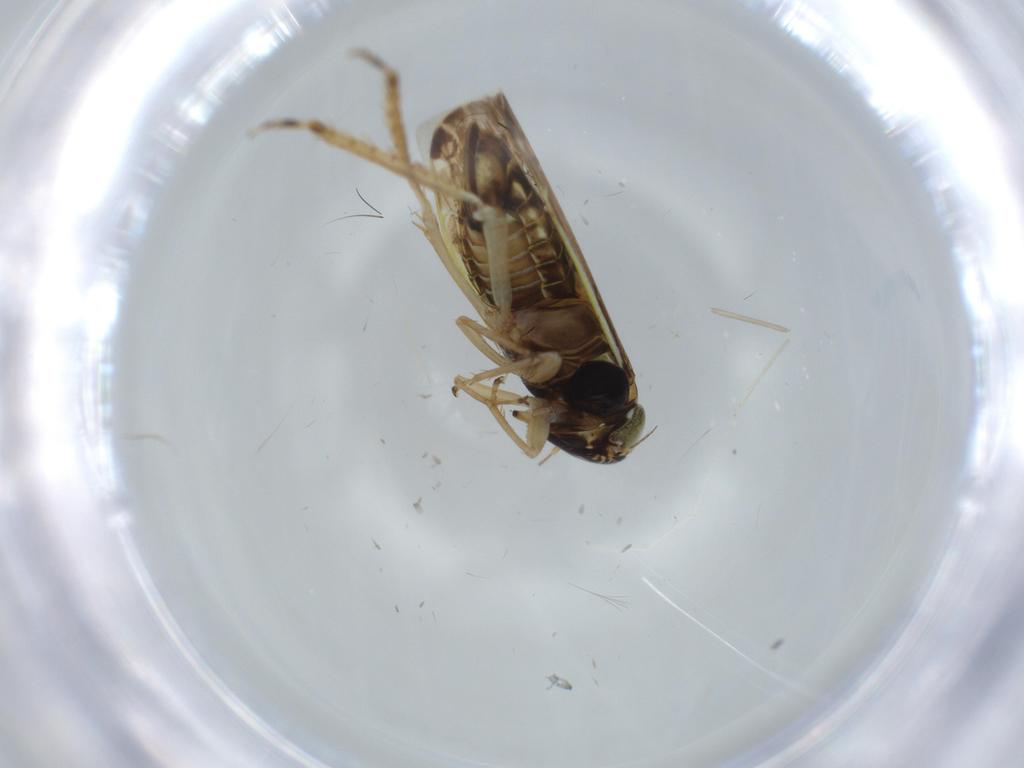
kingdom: Animalia
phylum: Arthropoda
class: Insecta
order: Hemiptera
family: Cicadellidae
